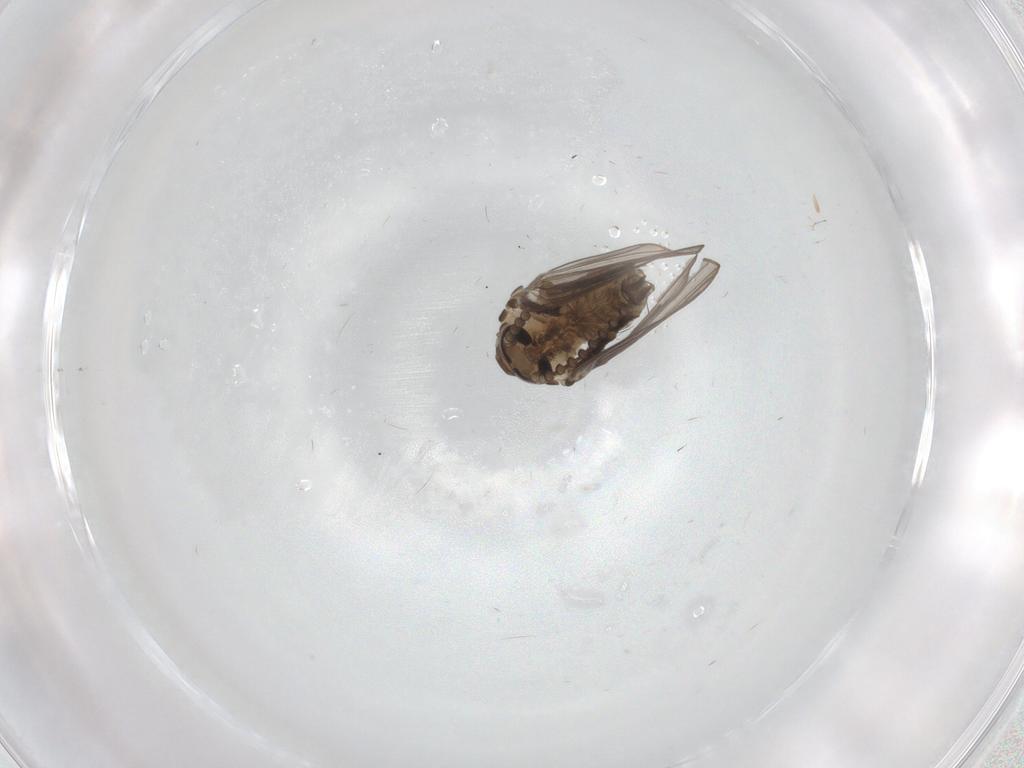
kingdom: Animalia
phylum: Arthropoda
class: Insecta
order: Diptera
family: Psychodidae
